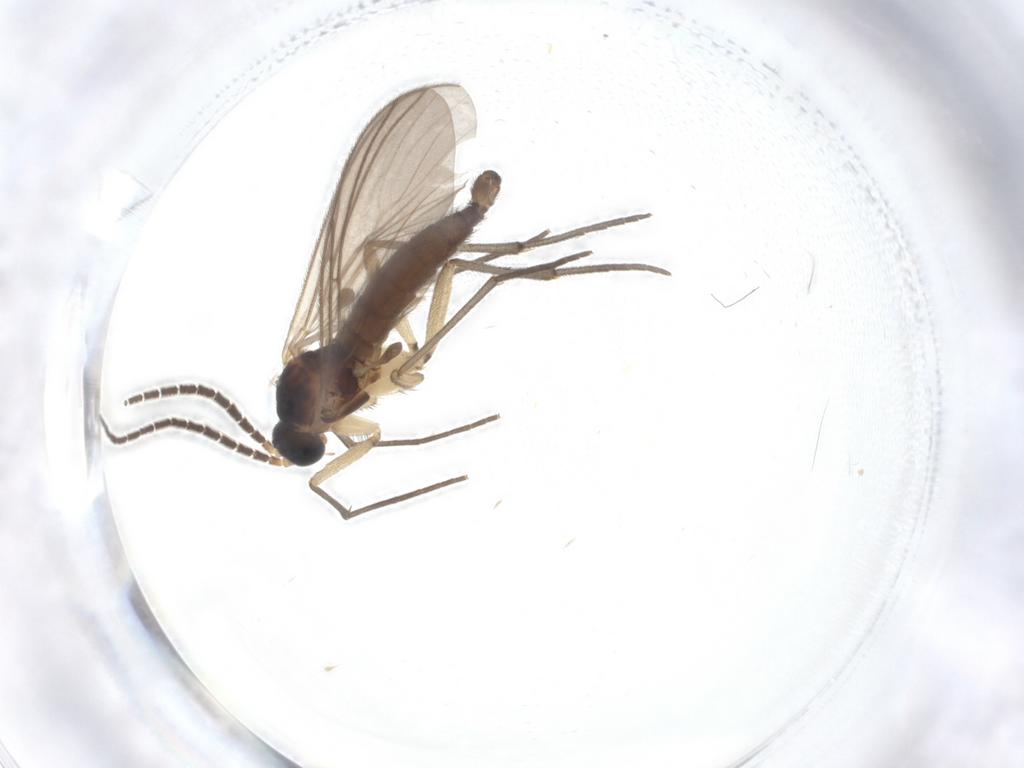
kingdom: Animalia
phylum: Arthropoda
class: Insecta
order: Diptera
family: Sciaridae
